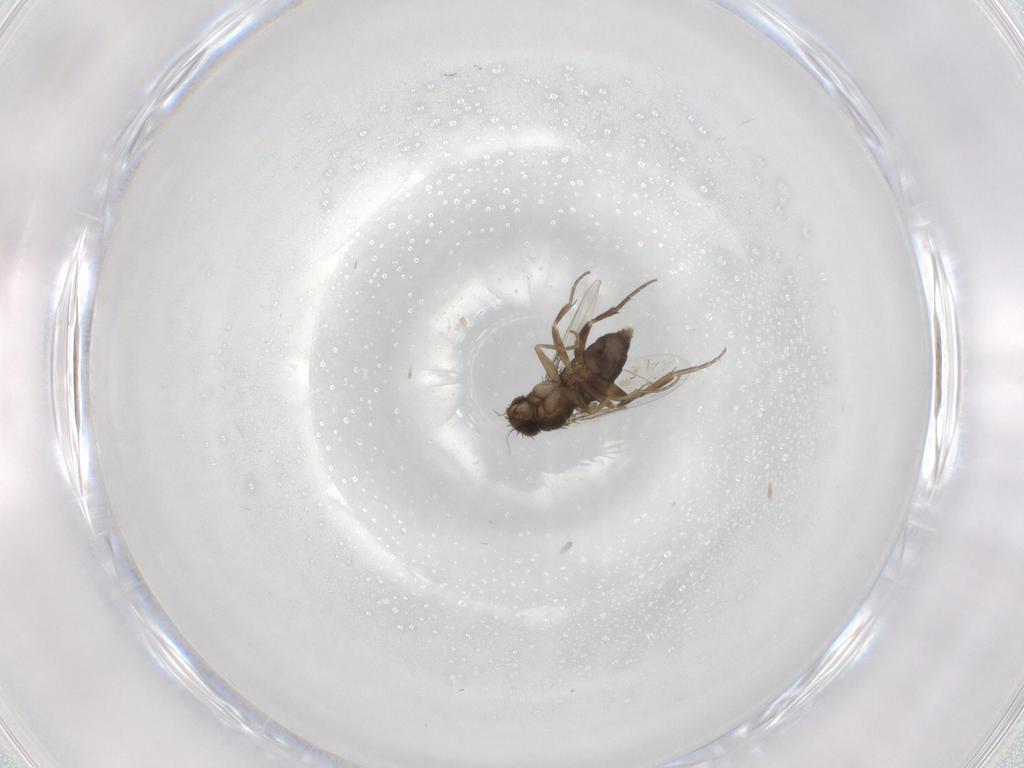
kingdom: Animalia
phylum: Arthropoda
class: Insecta
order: Diptera
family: Phoridae
